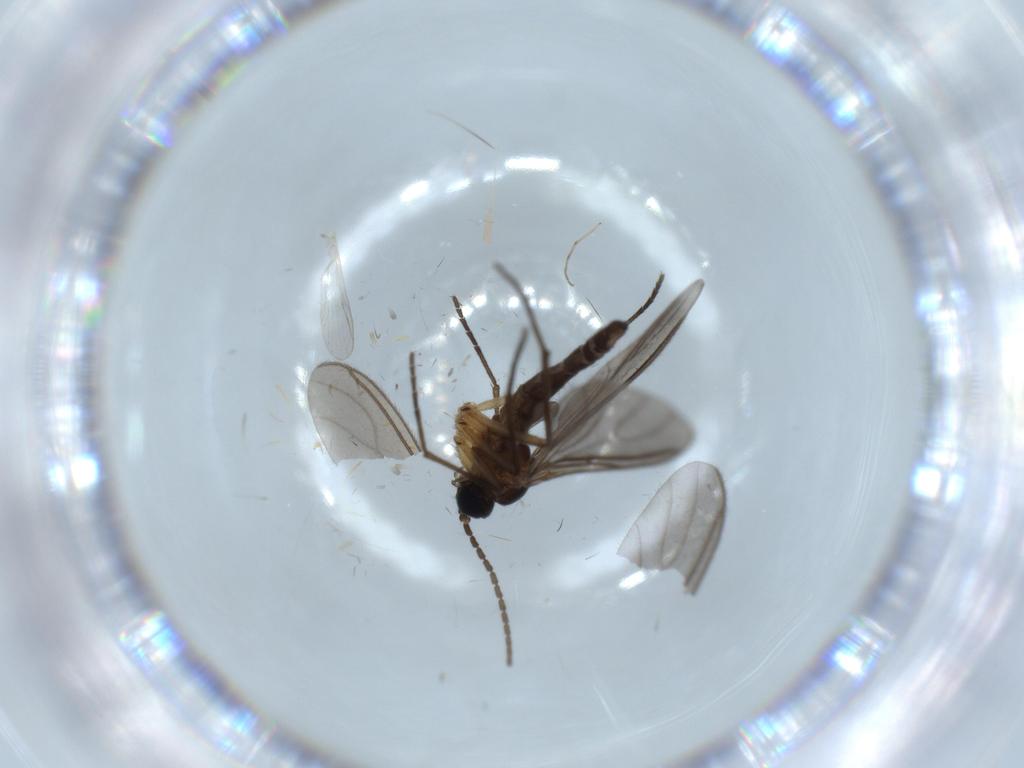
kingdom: Animalia
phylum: Arthropoda
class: Insecta
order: Diptera
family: Sciaridae
